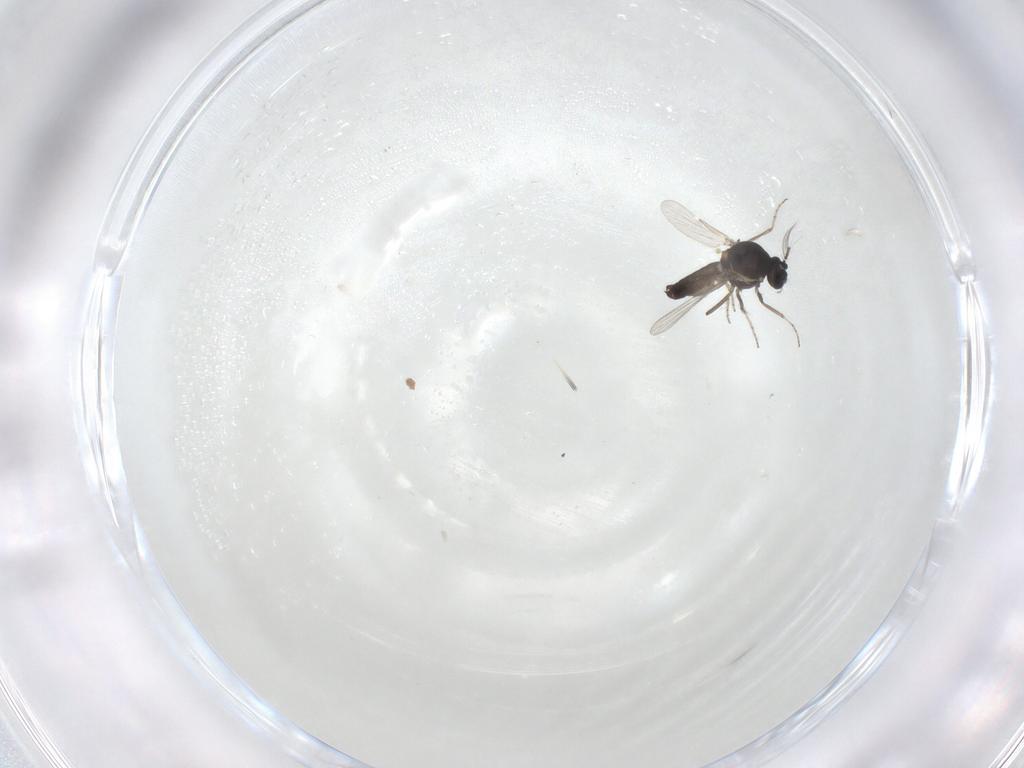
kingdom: Animalia
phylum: Arthropoda
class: Insecta
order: Diptera
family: Ceratopogonidae
